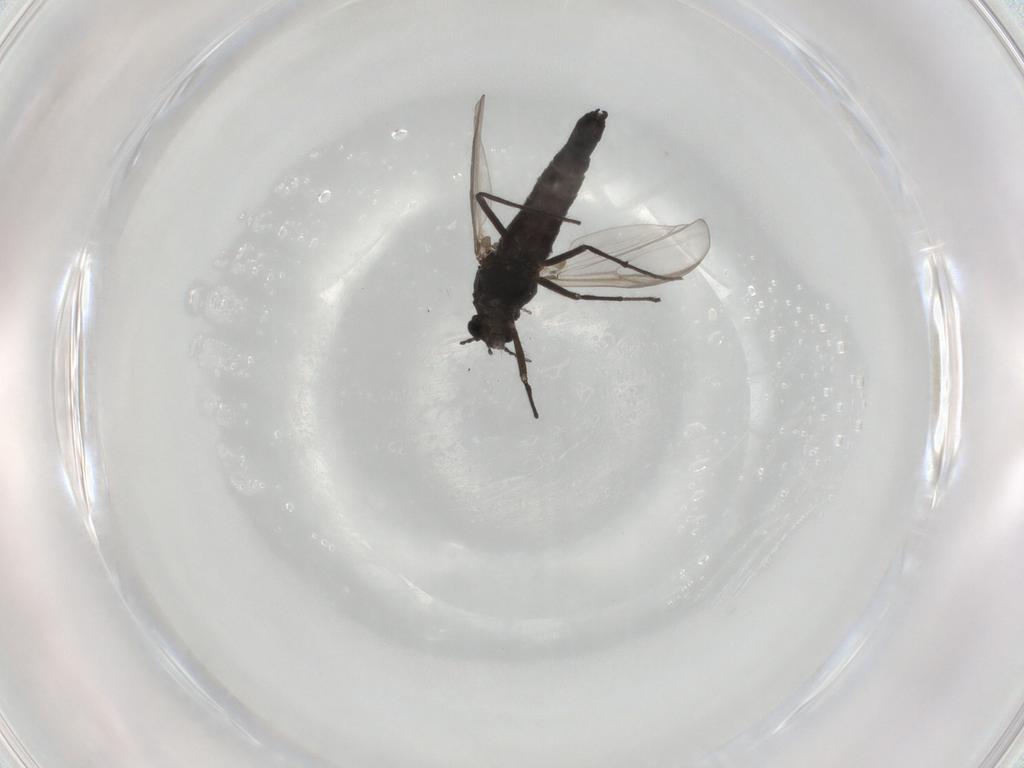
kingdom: Animalia
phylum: Arthropoda
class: Insecta
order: Diptera
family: Chironomidae
